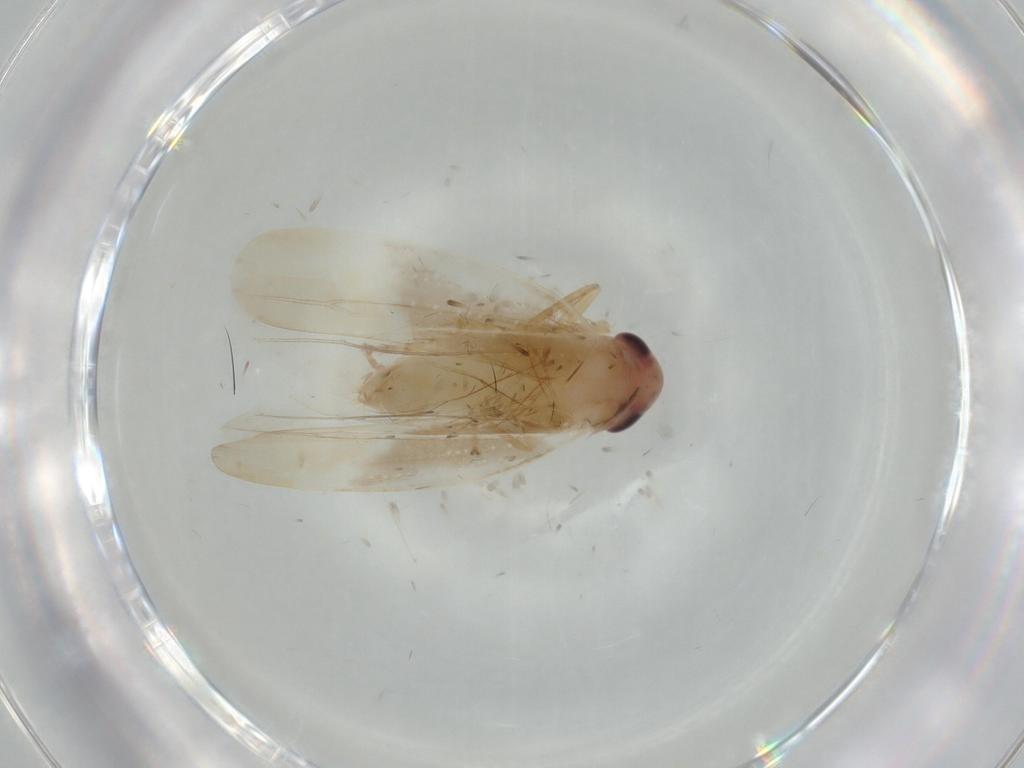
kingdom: Animalia
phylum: Arthropoda
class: Insecta
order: Hemiptera
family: Cicadellidae
